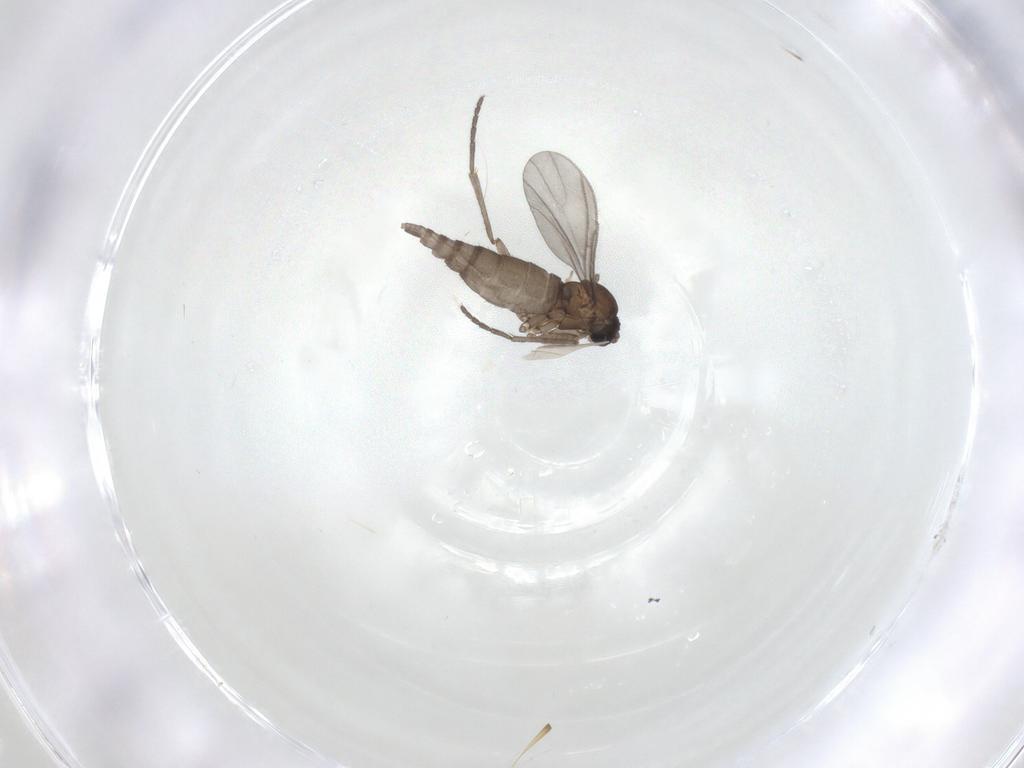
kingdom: Animalia
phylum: Arthropoda
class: Insecta
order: Diptera
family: Sciaridae
